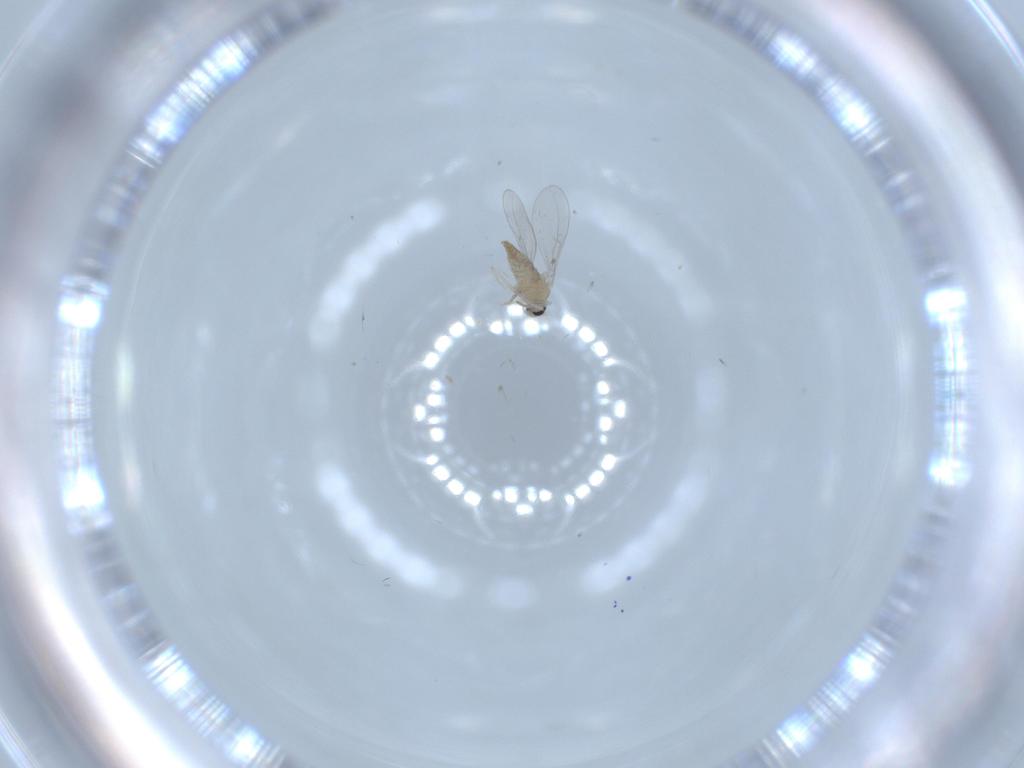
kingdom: Animalia
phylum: Arthropoda
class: Insecta
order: Diptera
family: Cecidomyiidae
